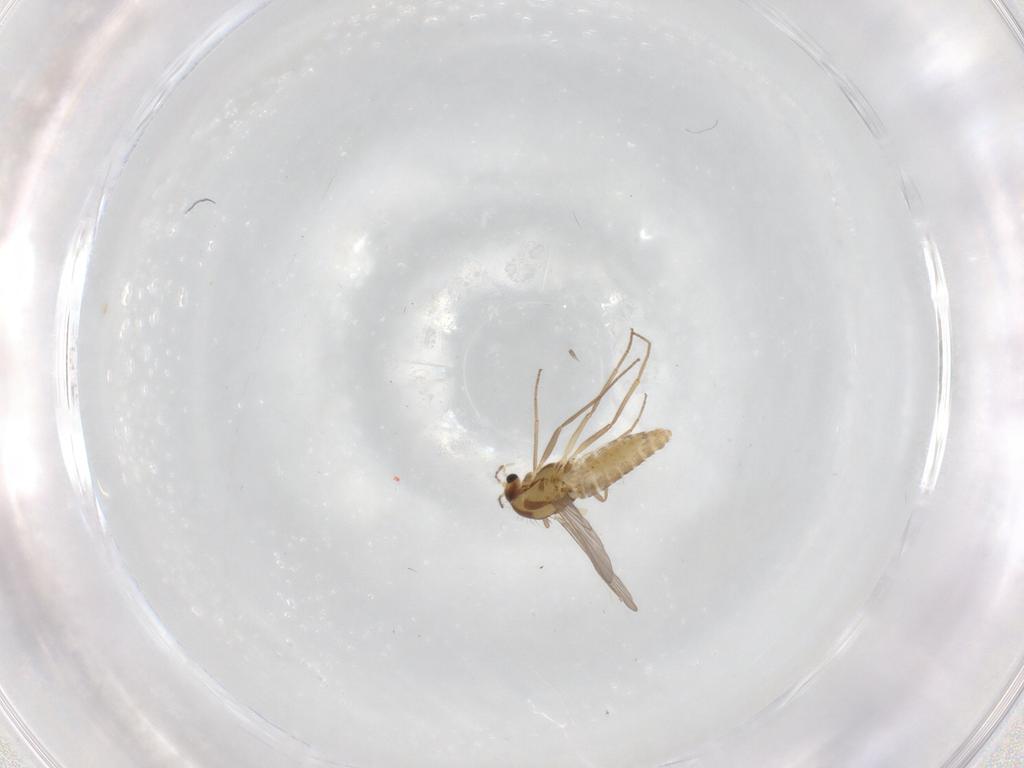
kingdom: Animalia
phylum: Arthropoda
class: Insecta
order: Diptera
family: Chironomidae
